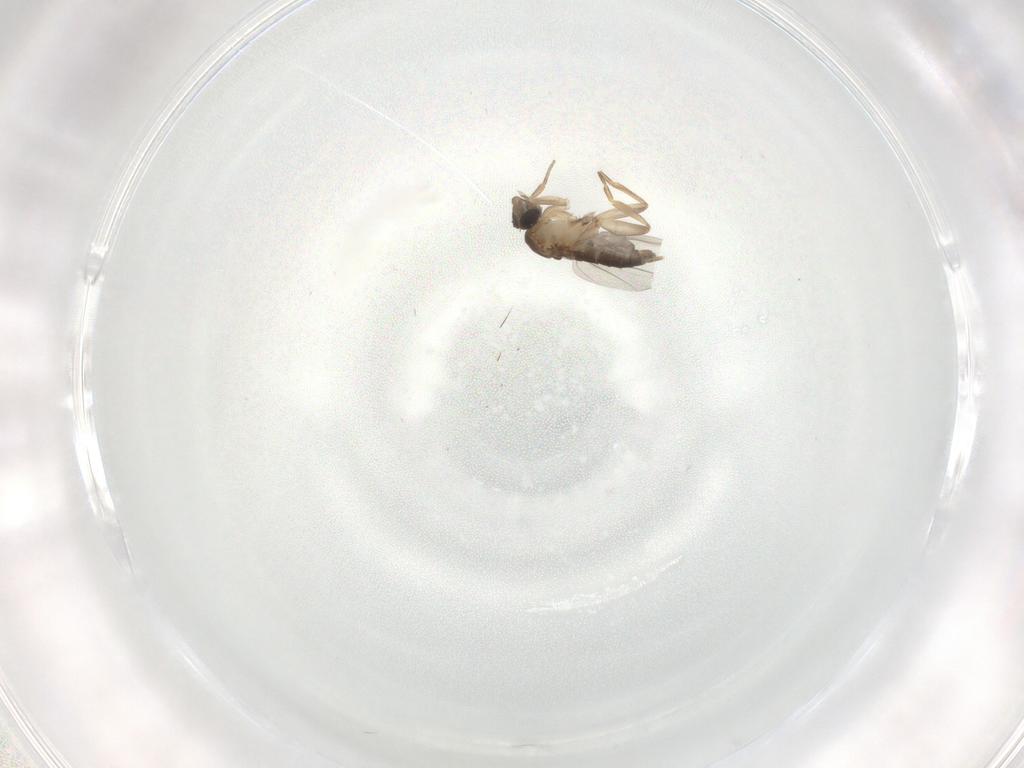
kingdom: Animalia
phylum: Arthropoda
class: Insecta
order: Diptera
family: Phoridae
